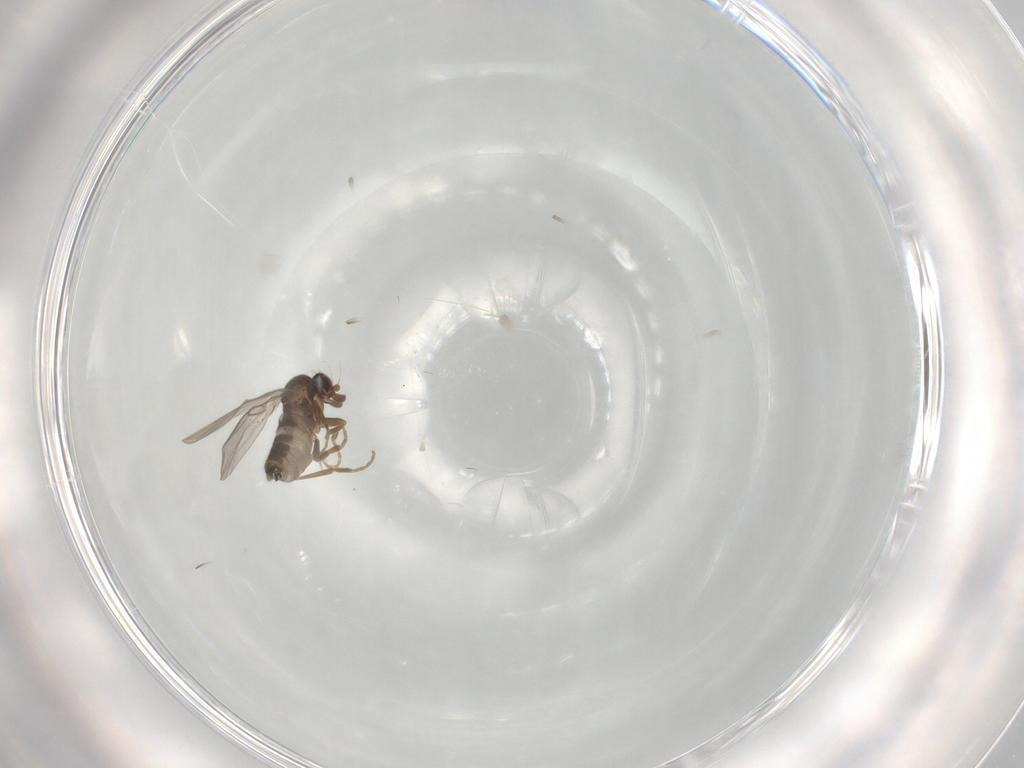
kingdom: Animalia
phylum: Arthropoda
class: Insecta
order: Diptera
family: Phoridae
